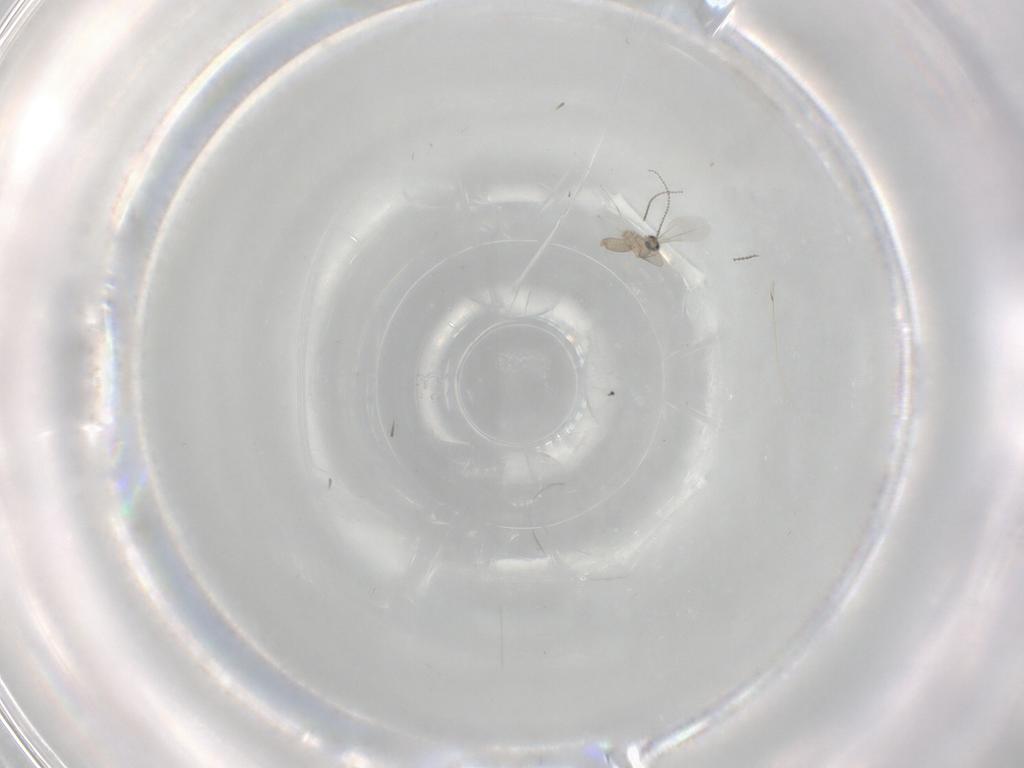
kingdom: Animalia
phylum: Arthropoda
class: Insecta
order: Diptera
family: Cecidomyiidae
